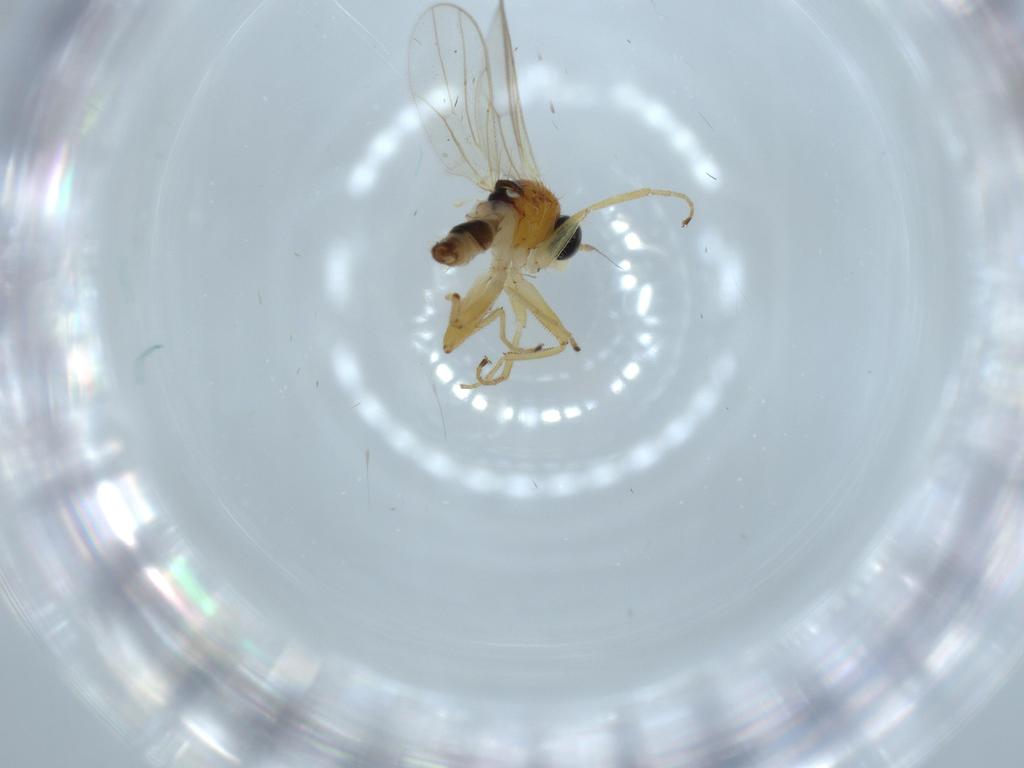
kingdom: Animalia
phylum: Arthropoda
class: Insecta
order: Diptera
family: Hybotidae
